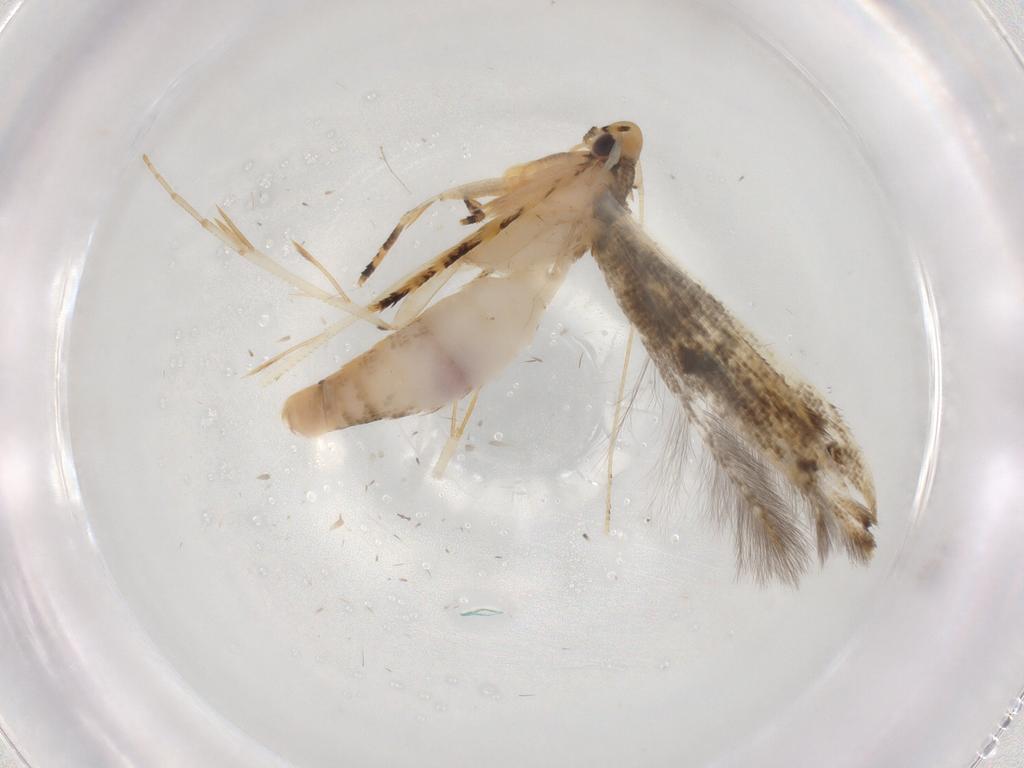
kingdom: Animalia
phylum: Arthropoda
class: Insecta
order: Lepidoptera
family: Cosmopterigidae
